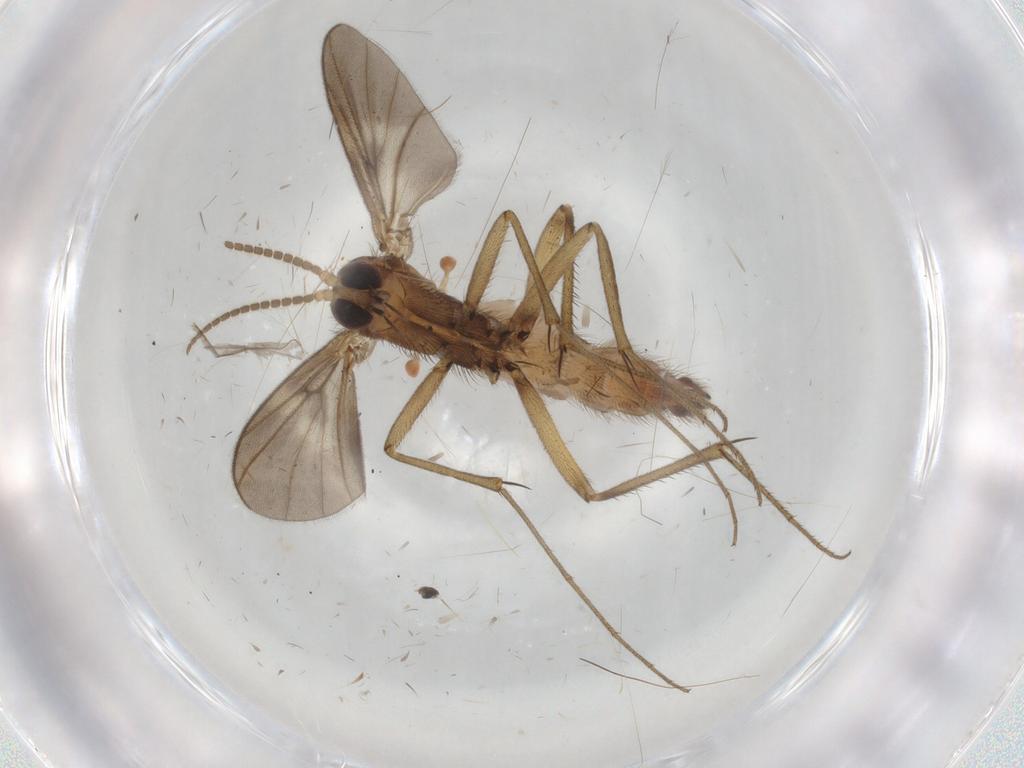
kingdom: Animalia
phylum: Arthropoda
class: Insecta
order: Diptera
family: Cecidomyiidae
